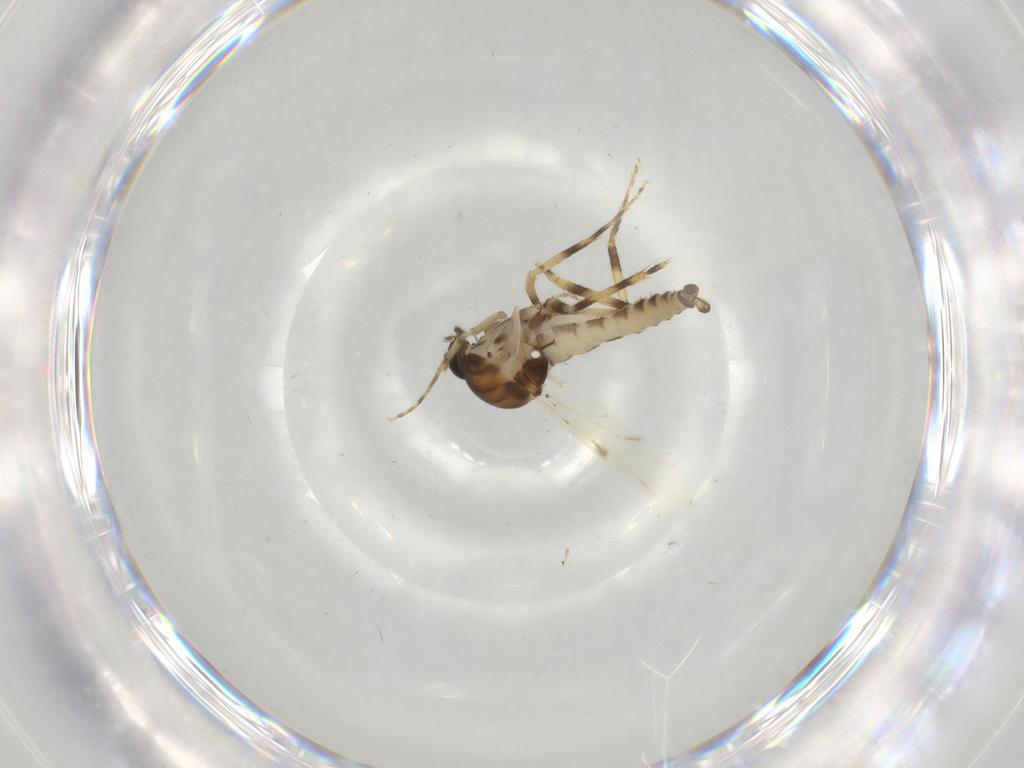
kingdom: Animalia
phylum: Arthropoda
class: Insecta
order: Diptera
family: Ceratopogonidae
